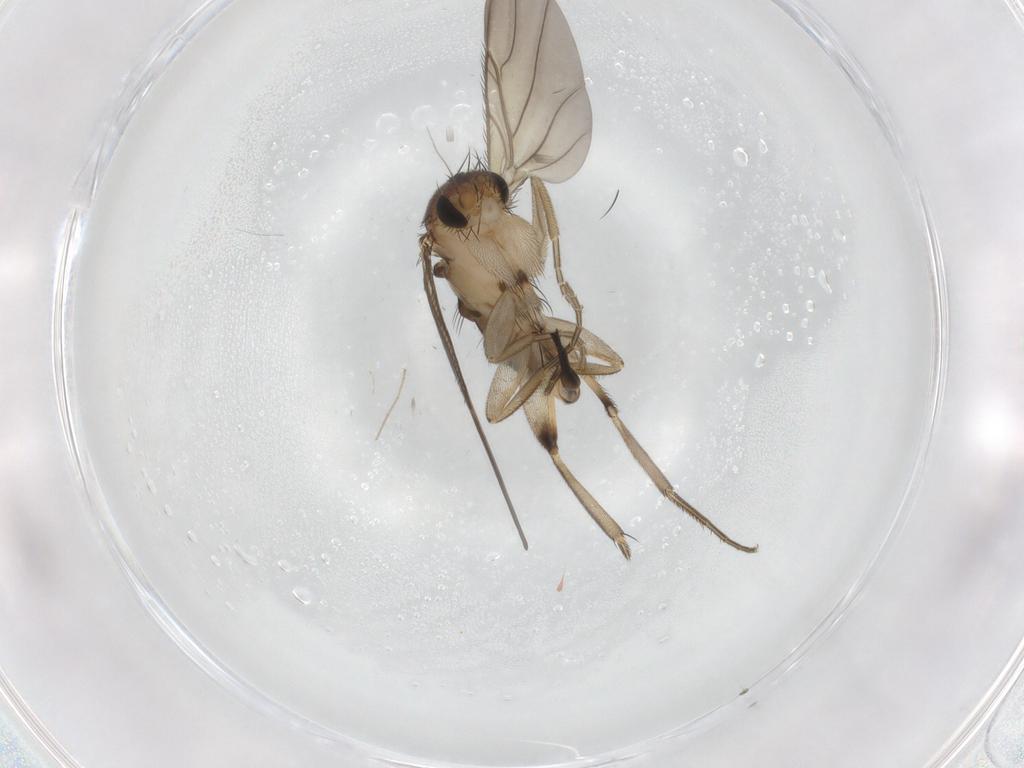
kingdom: Animalia
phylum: Arthropoda
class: Insecta
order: Diptera
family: Phoridae
